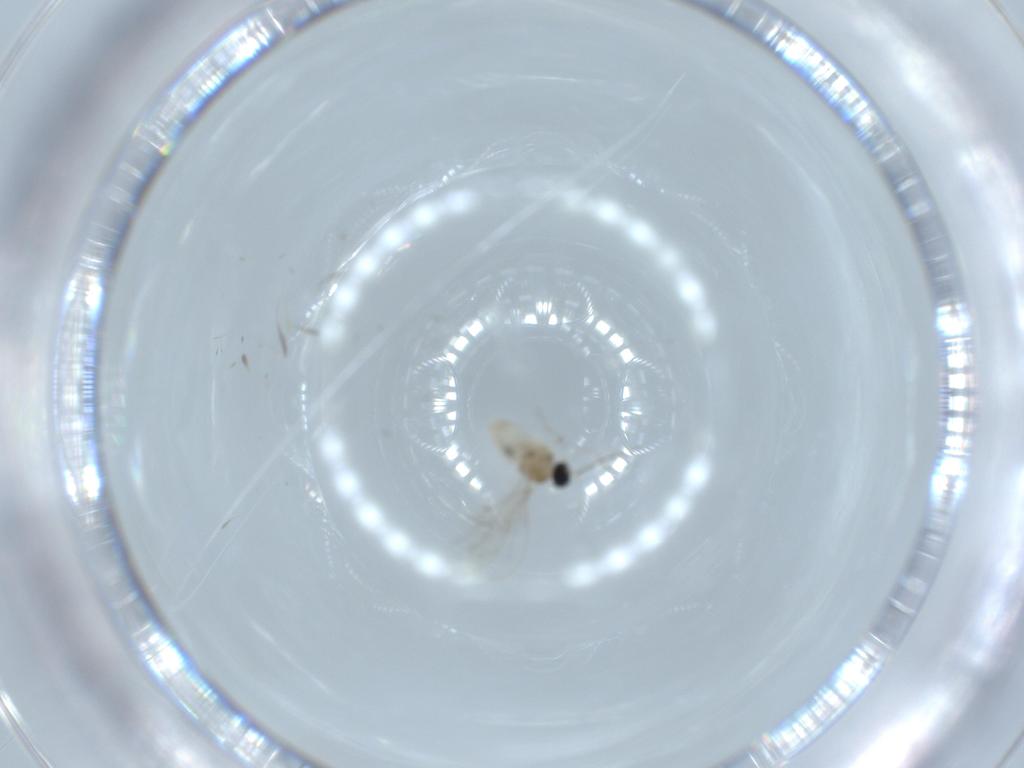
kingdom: Animalia
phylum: Arthropoda
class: Insecta
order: Diptera
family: Cecidomyiidae
